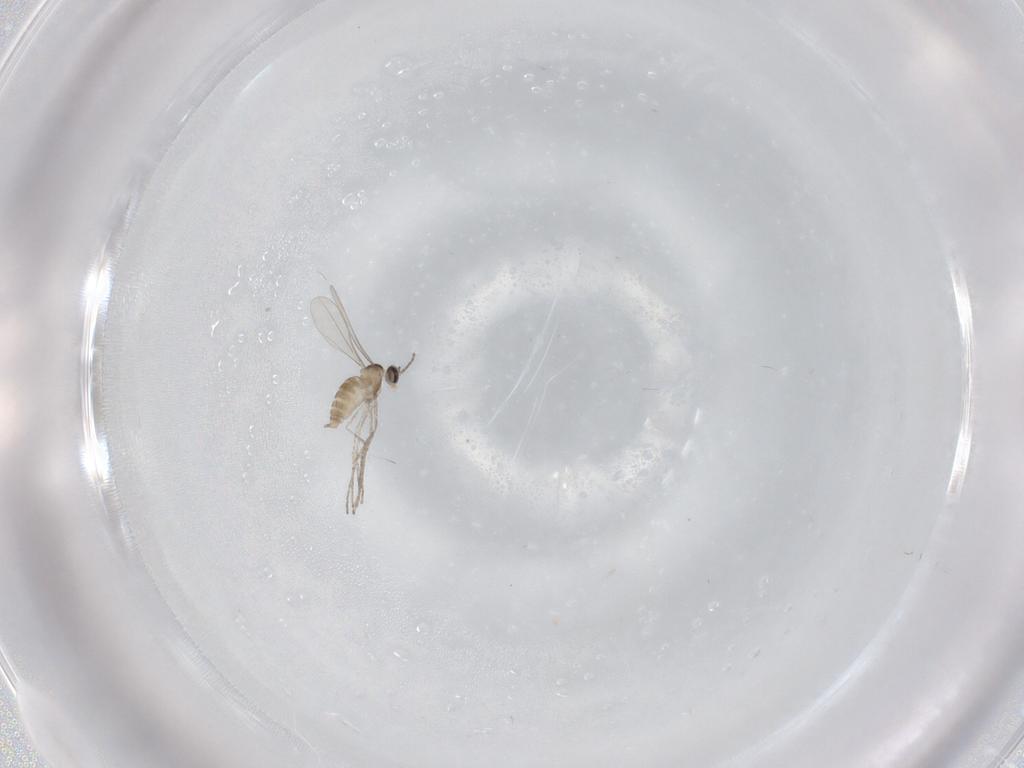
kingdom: Animalia
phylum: Arthropoda
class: Insecta
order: Diptera
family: Cecidomyiidae
